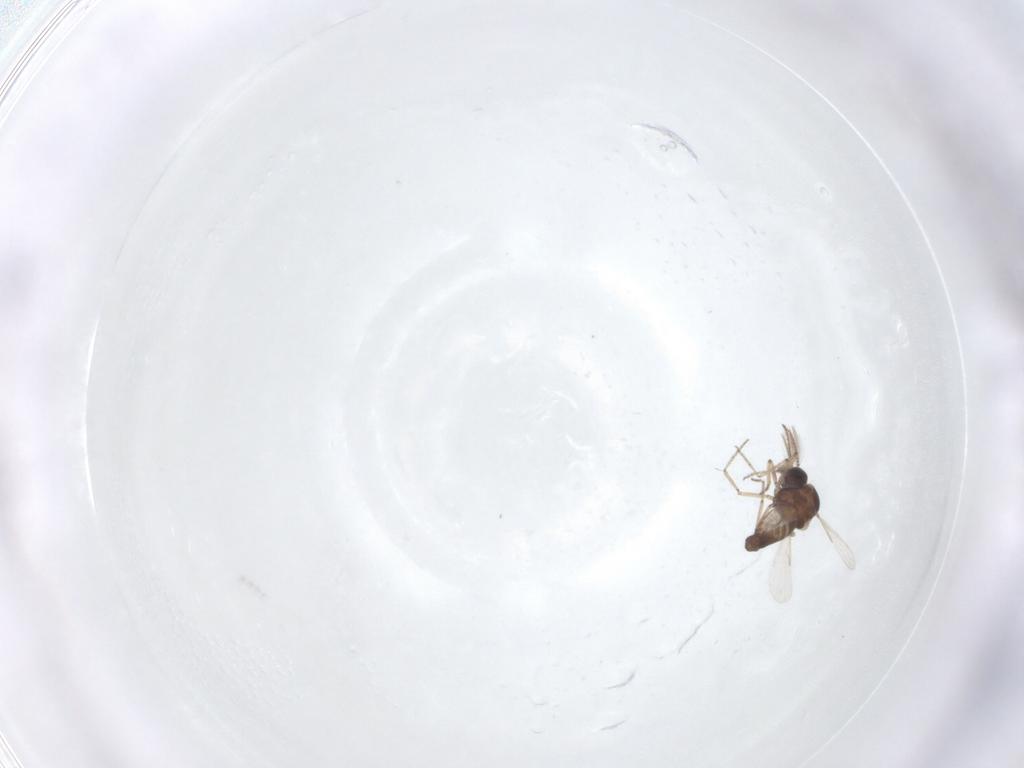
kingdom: Animalia
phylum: Arthropoda
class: Insecta
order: Diptera
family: Ceratopogonidae
